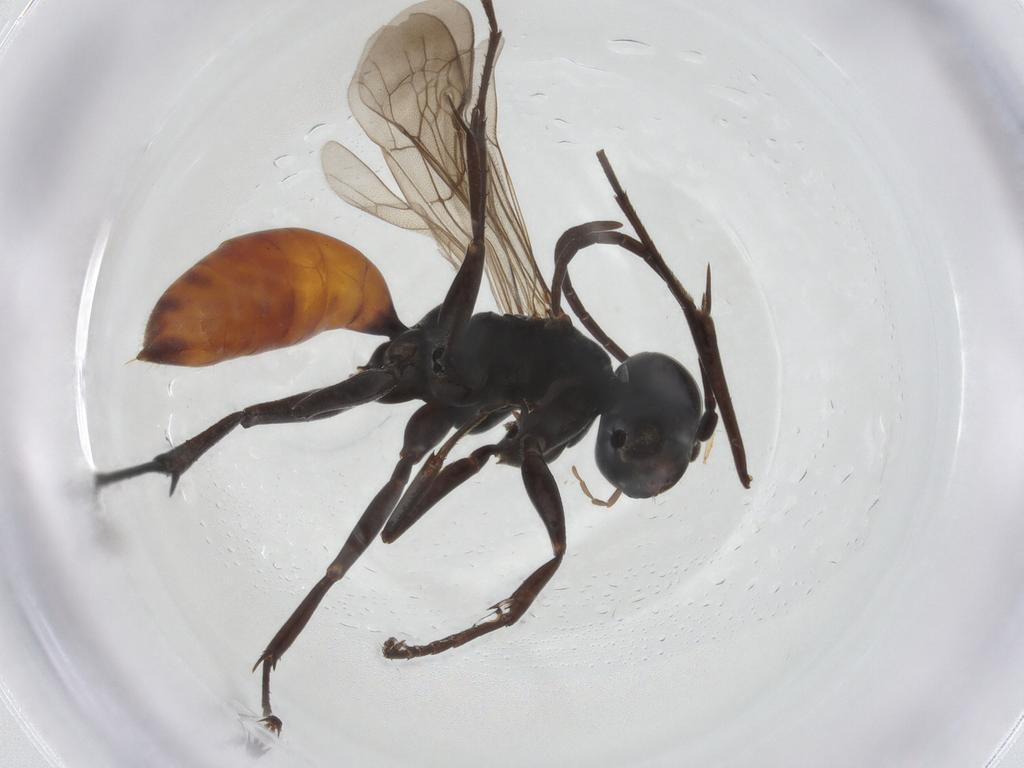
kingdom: Animalia
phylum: Arthropoda
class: Insecta
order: Hymenoptera
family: Pompilidae
